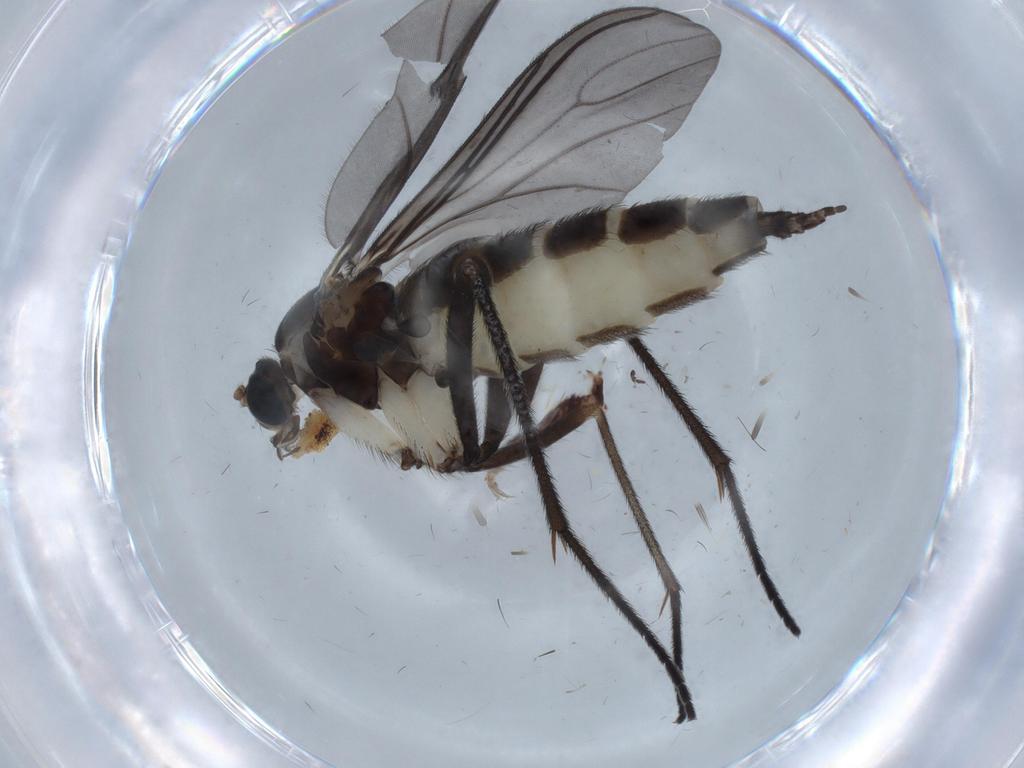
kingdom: Animalia
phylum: Arthropoda
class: Insecta
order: Diptera
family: Sciaridae
